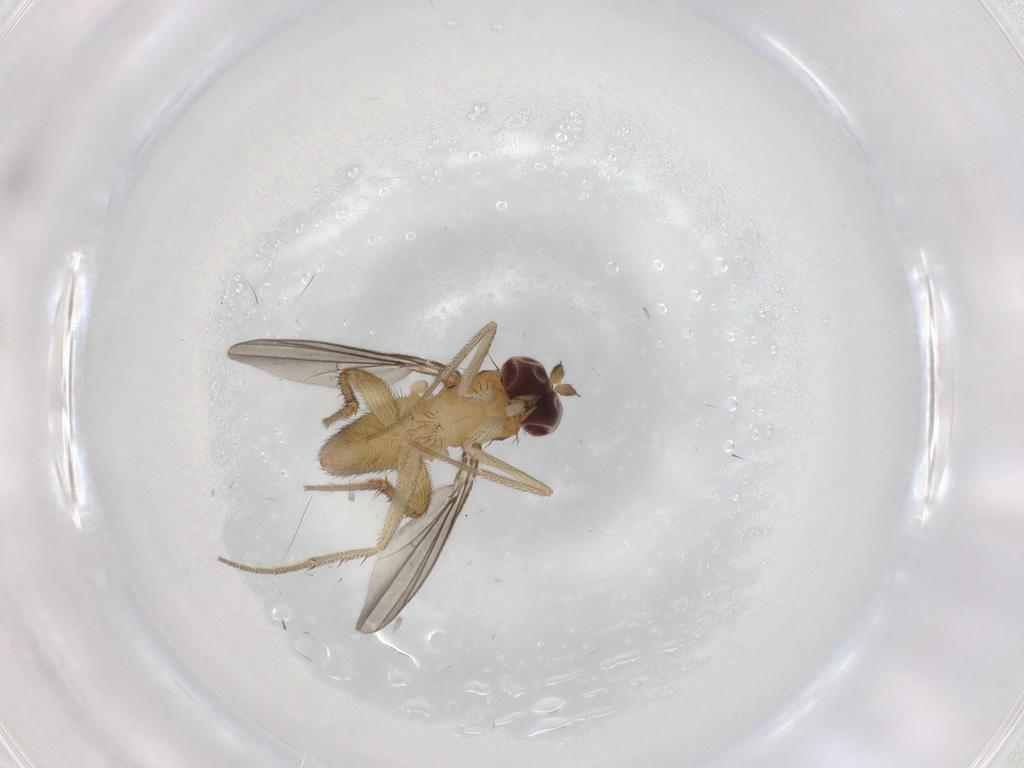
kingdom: Animalia
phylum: Arthropoda
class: Insecta
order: Diptera
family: Dolichopodidae
